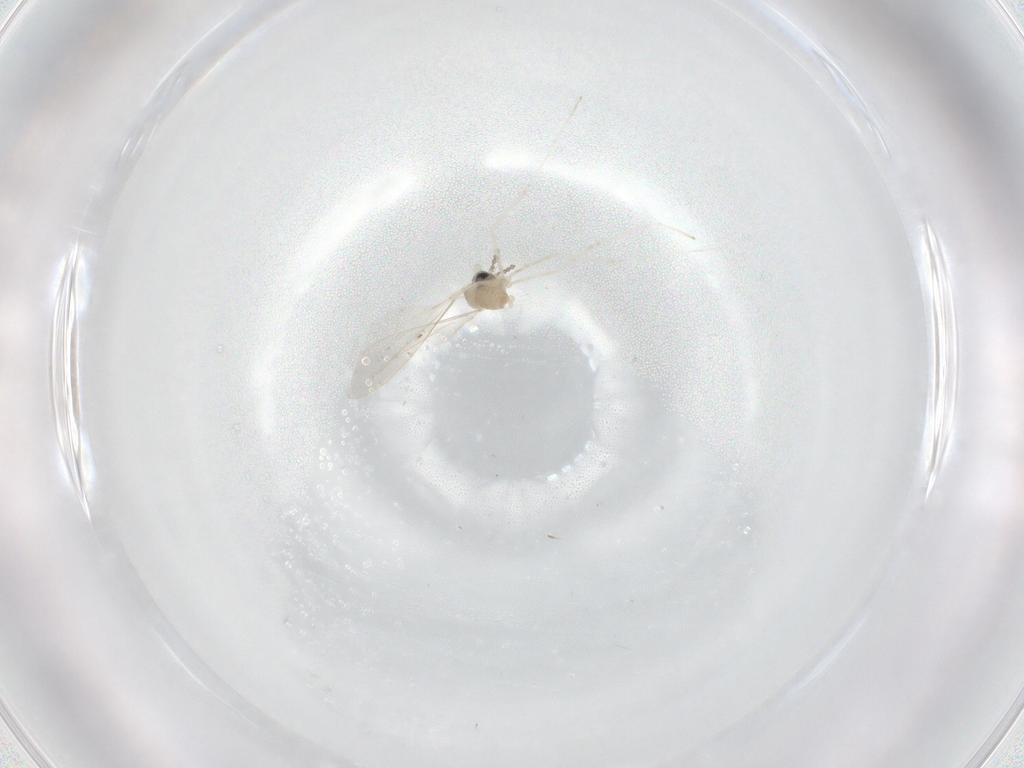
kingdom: Animalia
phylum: Arthropoda
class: Insecta
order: Diptera
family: Cecidomyiidae
